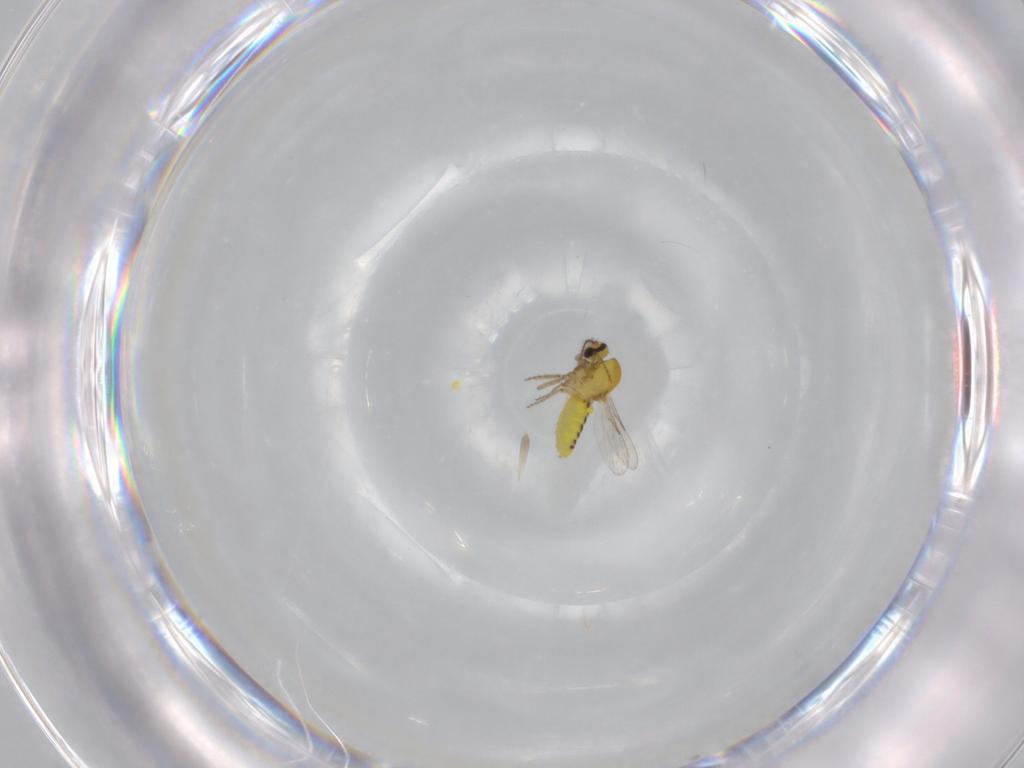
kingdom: Animalia
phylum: Arthropoda
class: Insecta
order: Diptera
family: Ceratopogonidae
